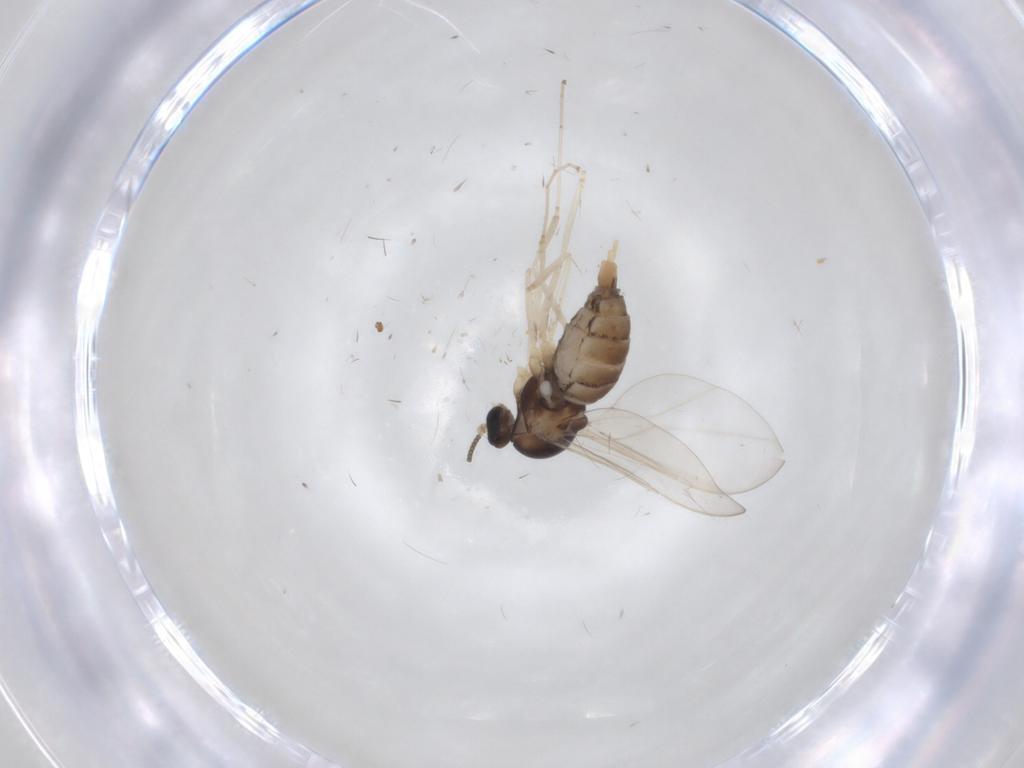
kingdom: Animalia
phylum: Arthropoda
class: Insecta
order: Diptera
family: Cecidomyiidae
